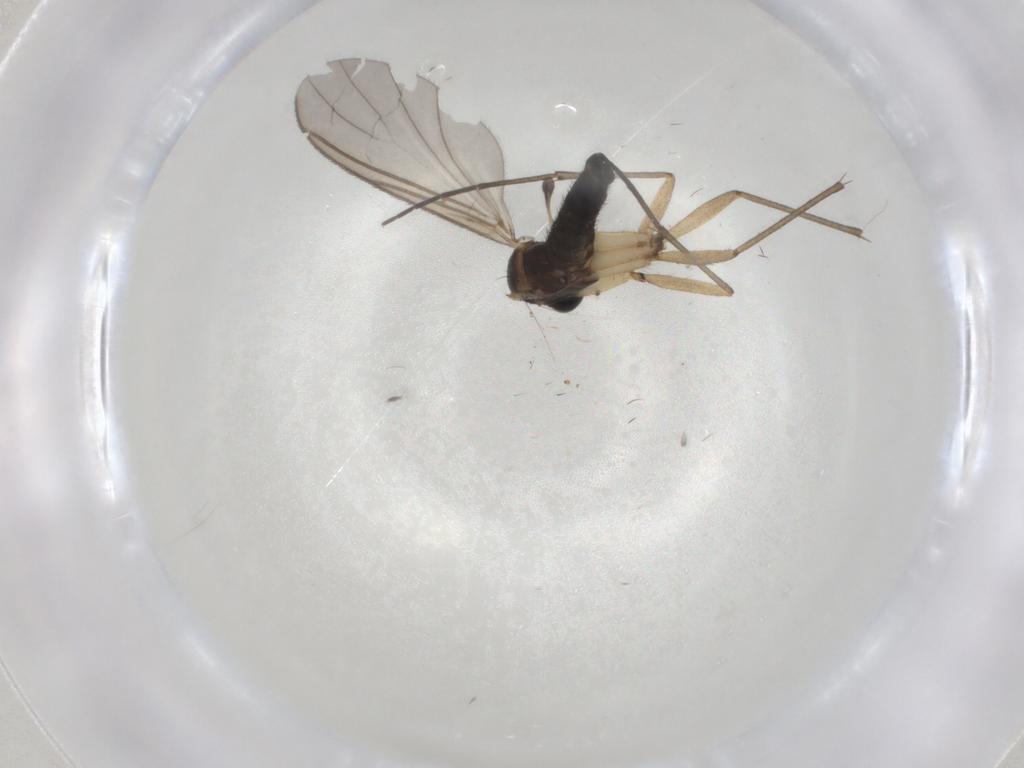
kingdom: Animalia
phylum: Arthropoda
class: Insecta
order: Diptera
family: Sciaridae
